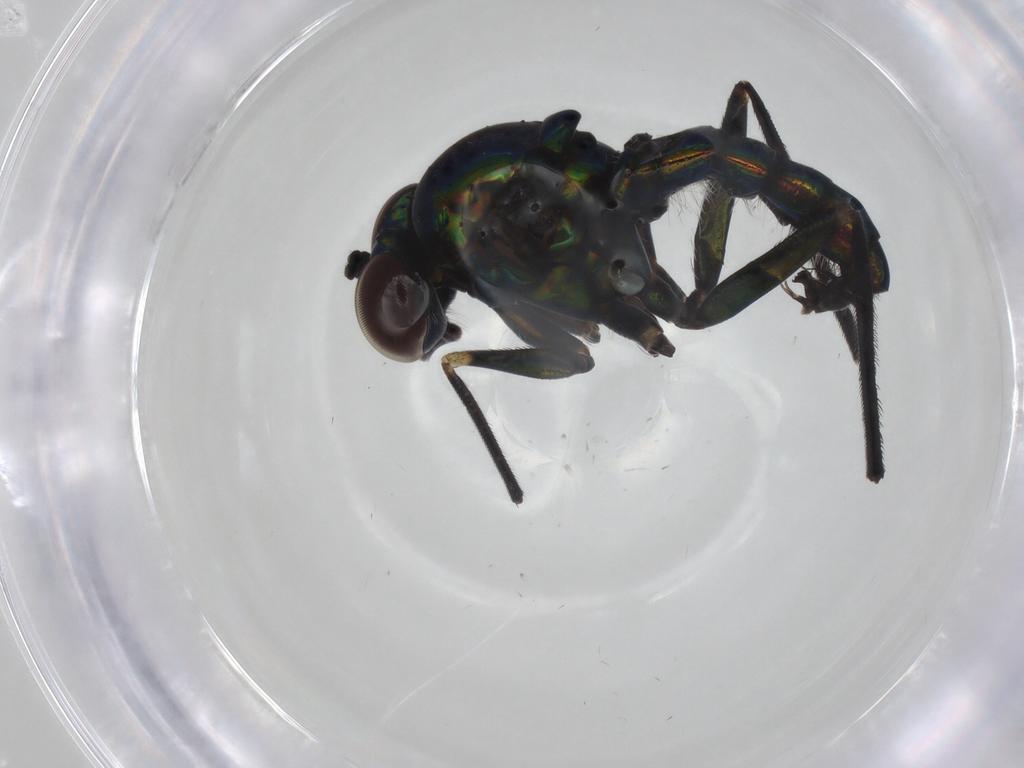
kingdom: Animalia
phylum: Arthropoda
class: Insecta
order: Diptera
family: Dolichopodidae
